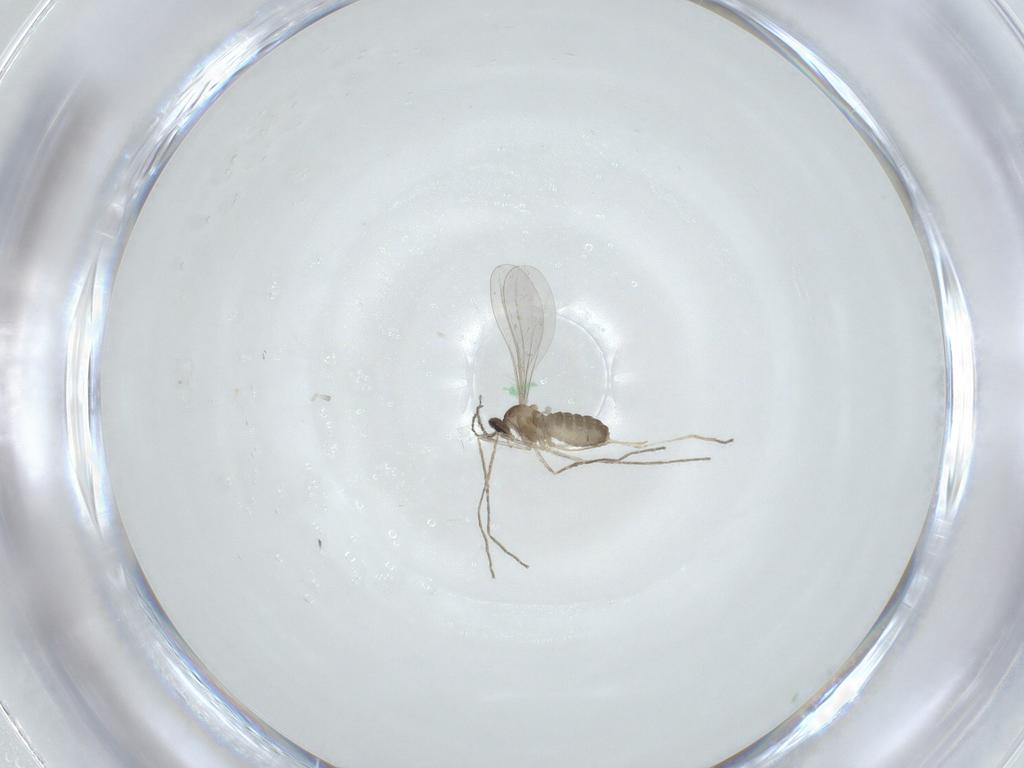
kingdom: Animalia
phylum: Arthropoda
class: Insecta
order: Diptera
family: Cecidomyiidae
